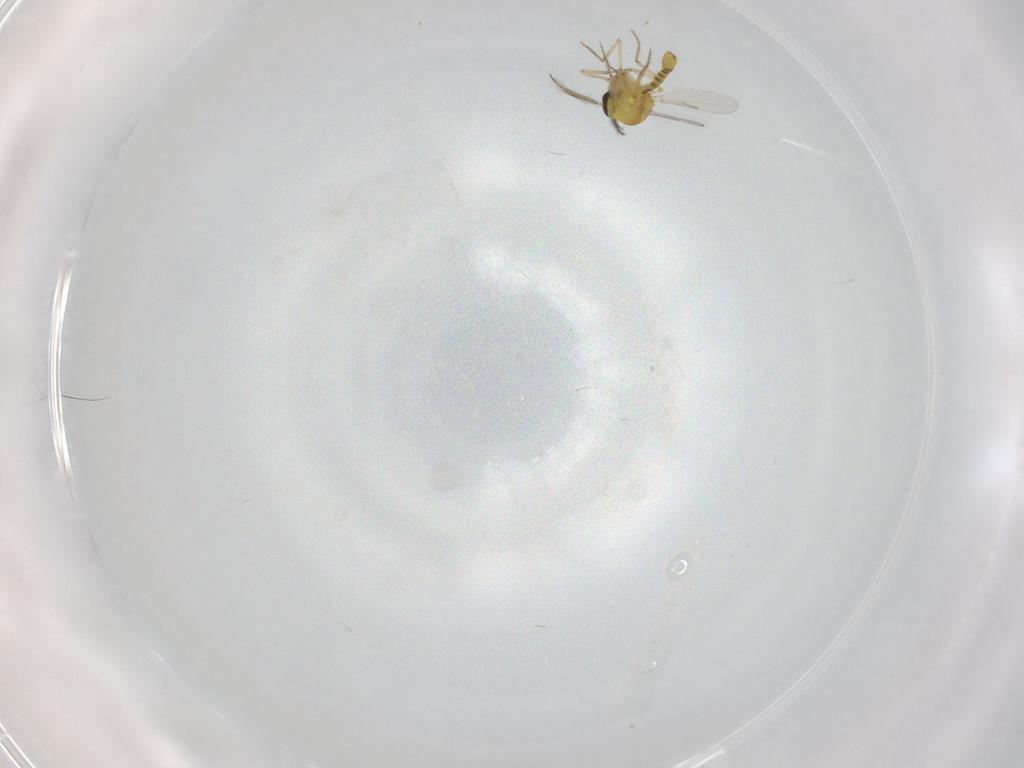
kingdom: Animalia
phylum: Arthropoda
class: Insecta
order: Diptera
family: Ceratopogonidae
